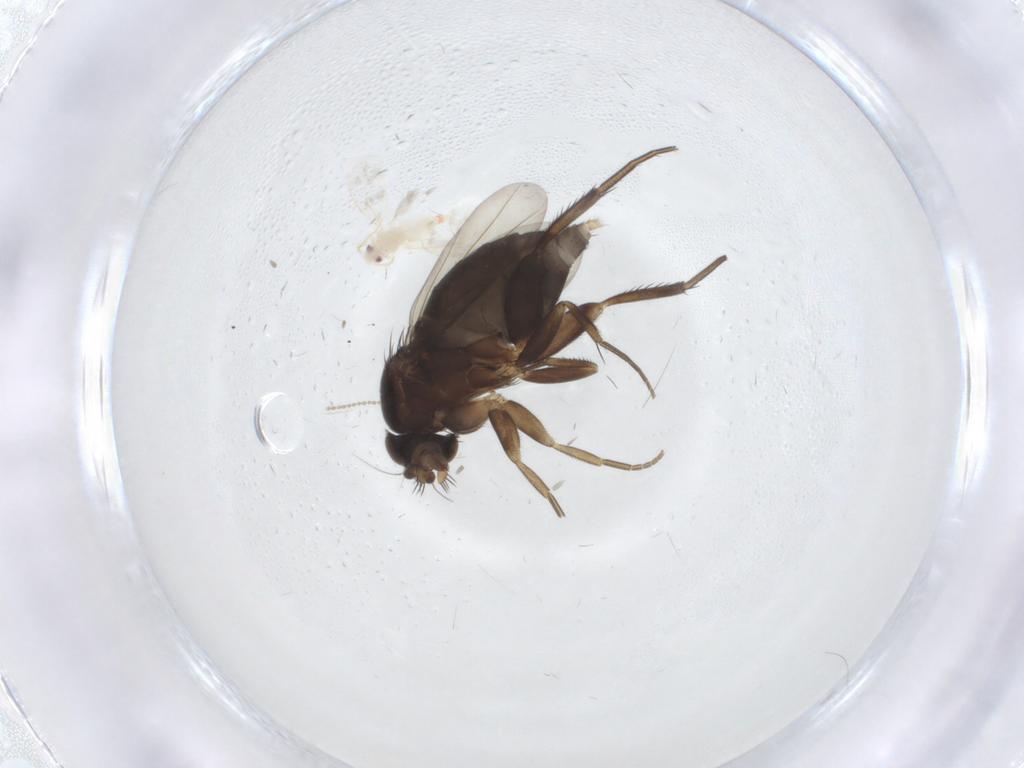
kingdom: Animalia
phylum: Arthropoda
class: Insecta
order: Diptera
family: Phoridae
